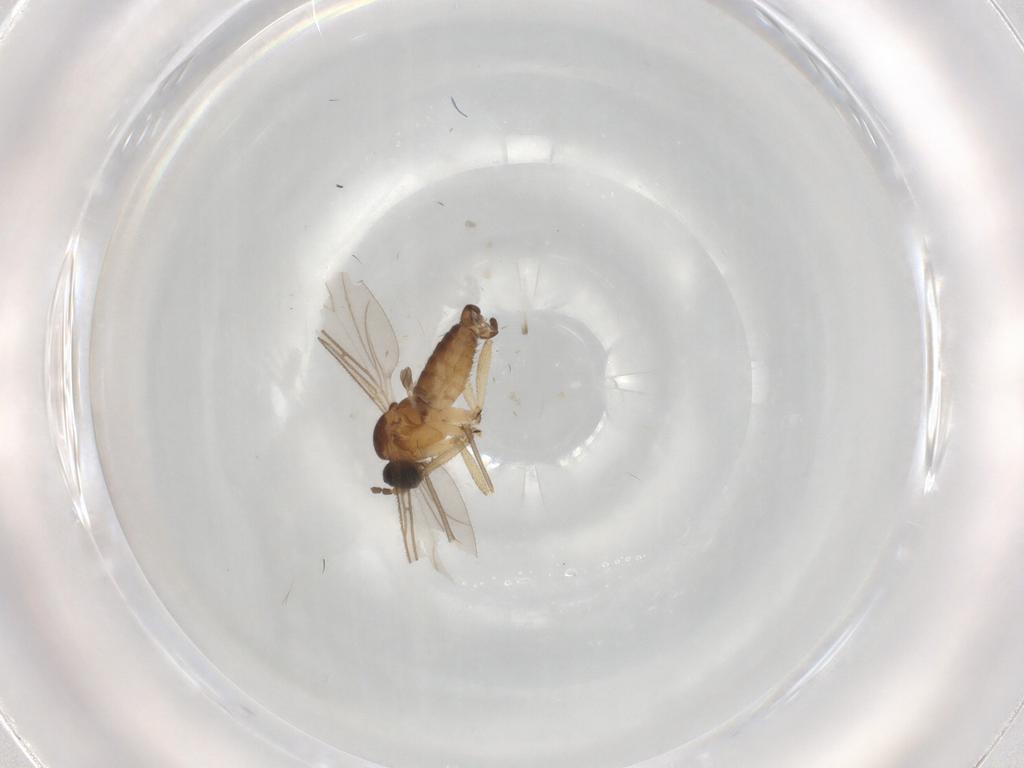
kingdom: Animalia
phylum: Arthropoda
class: Insecta
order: Diptera
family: Sciaridae
